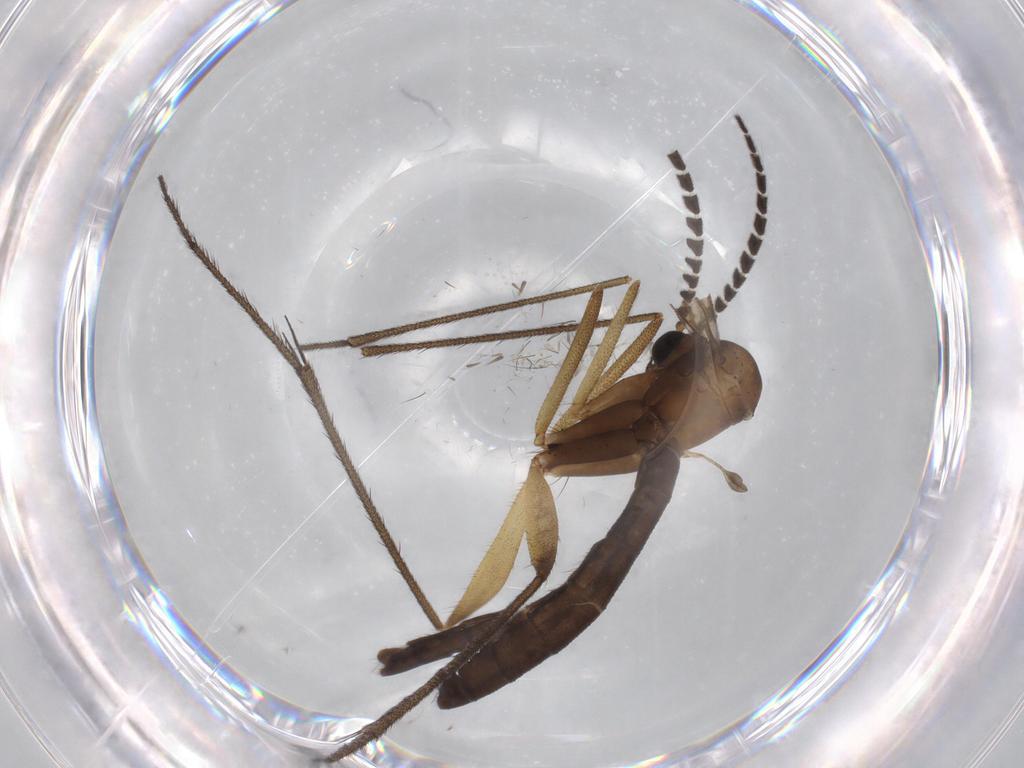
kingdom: Animalia
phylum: Arthropoda
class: Insecta
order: Diptera
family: Cecidomyiidae
